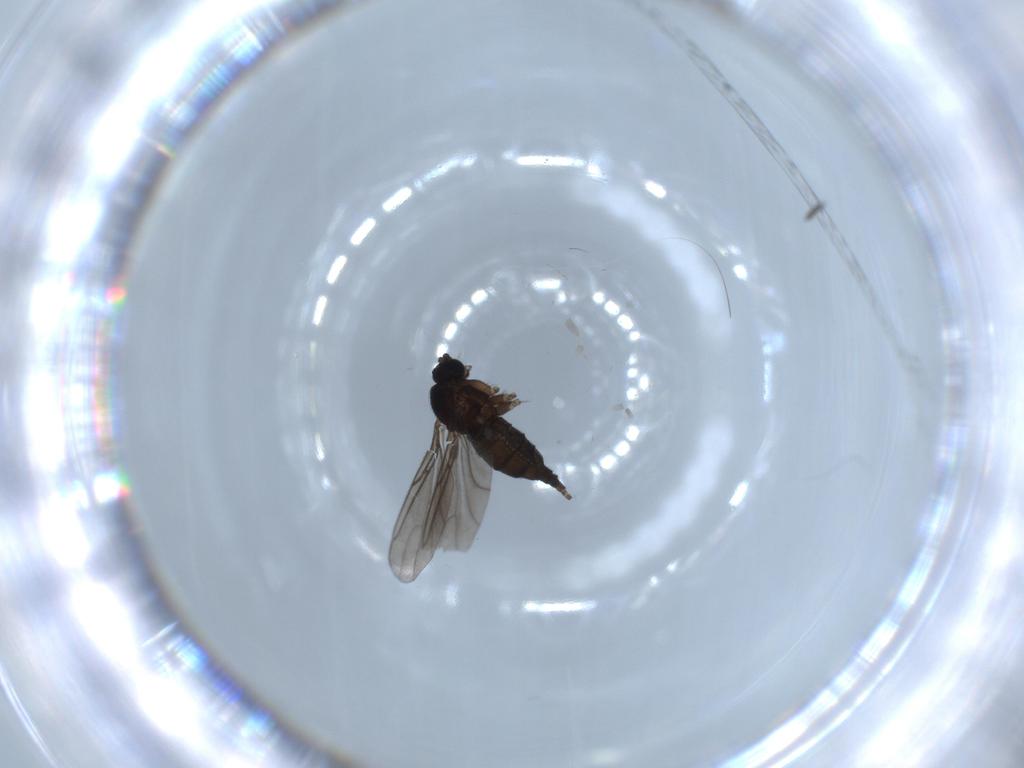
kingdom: Animalia
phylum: Arthropoda
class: Insecta
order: Diptera
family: Sciaridae
